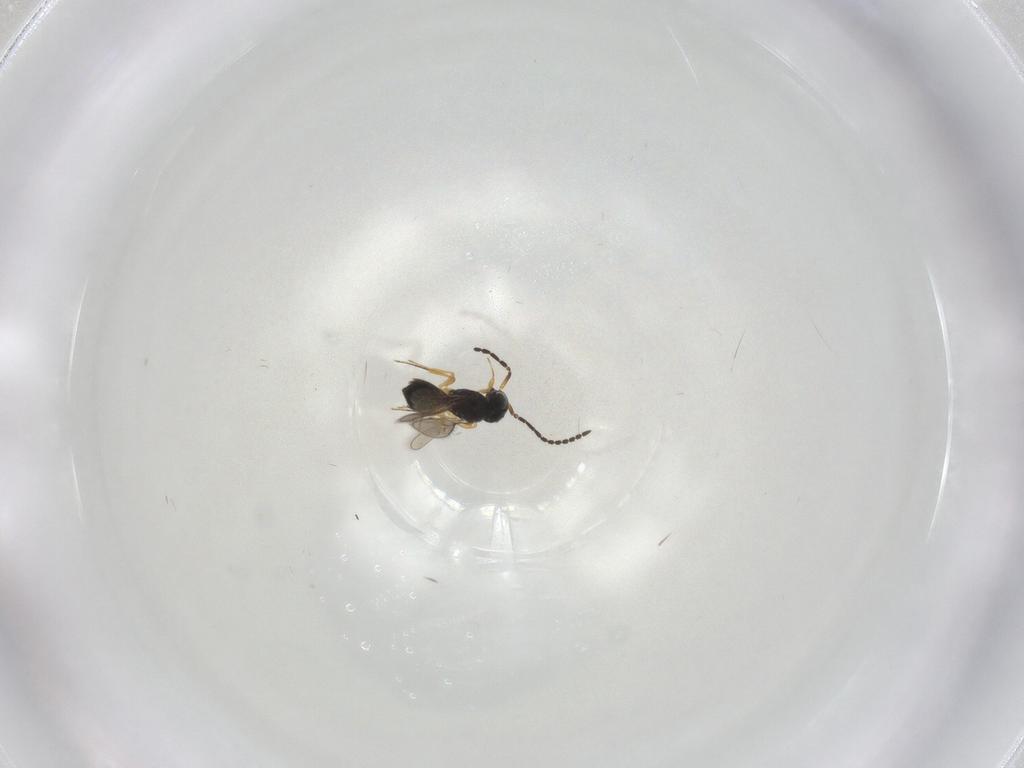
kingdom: Animalia
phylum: Arthropoda
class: Insecta
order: Hymenoptera
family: Scelionidae
